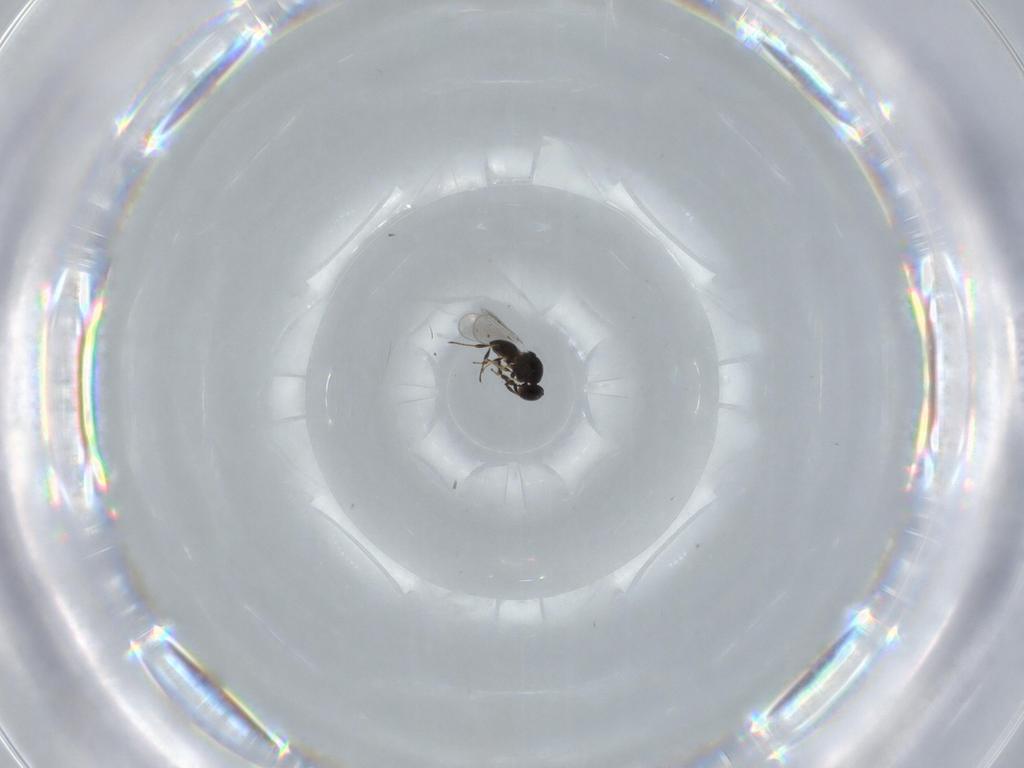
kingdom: Animalia
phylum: Arthropoda
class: Insecta
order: Hymenoptera
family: Platygastridae
